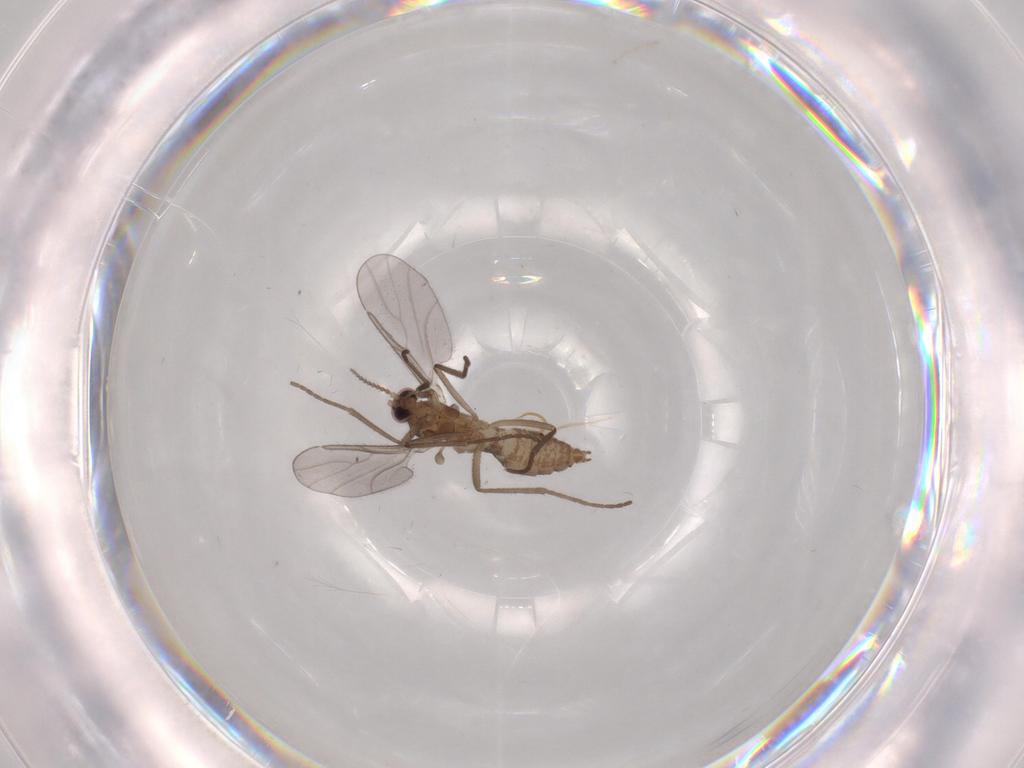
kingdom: Animalia
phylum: Arthropoda
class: Insecta
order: Diptera
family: Cecidomyiidae
